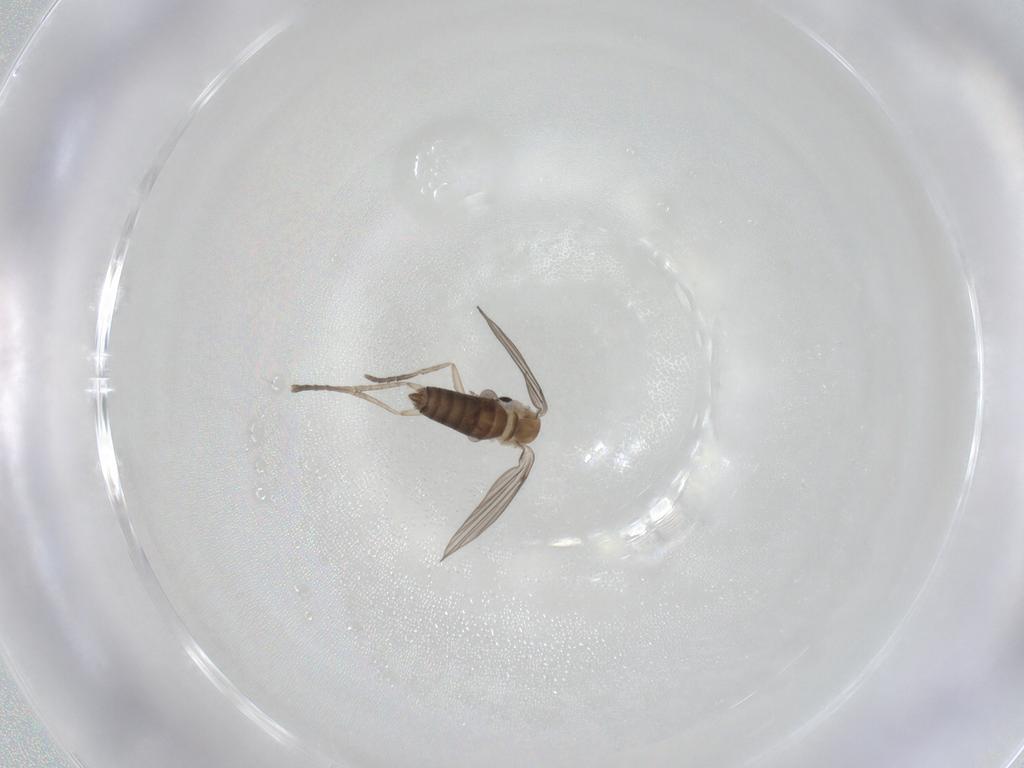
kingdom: Animalia
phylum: Arthropoda
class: Insecta
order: Diptera
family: Psychodidae
